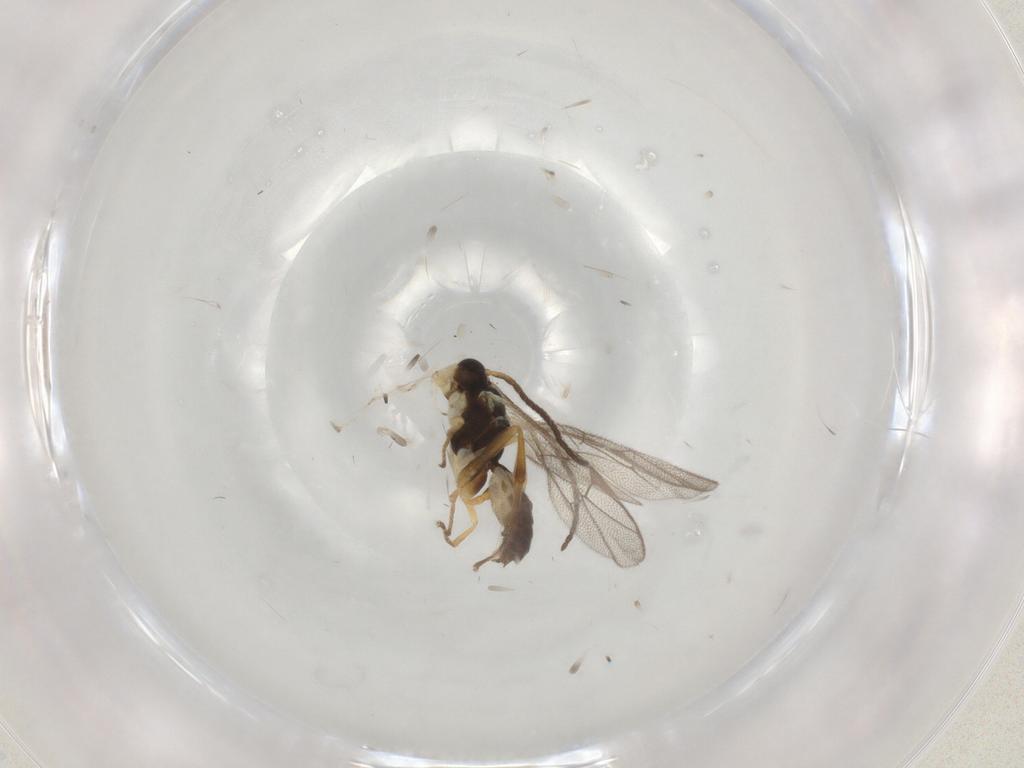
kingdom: Animalia
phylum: Arthropoda
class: Insecta
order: Hymenoptera
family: Ichneumonidae
